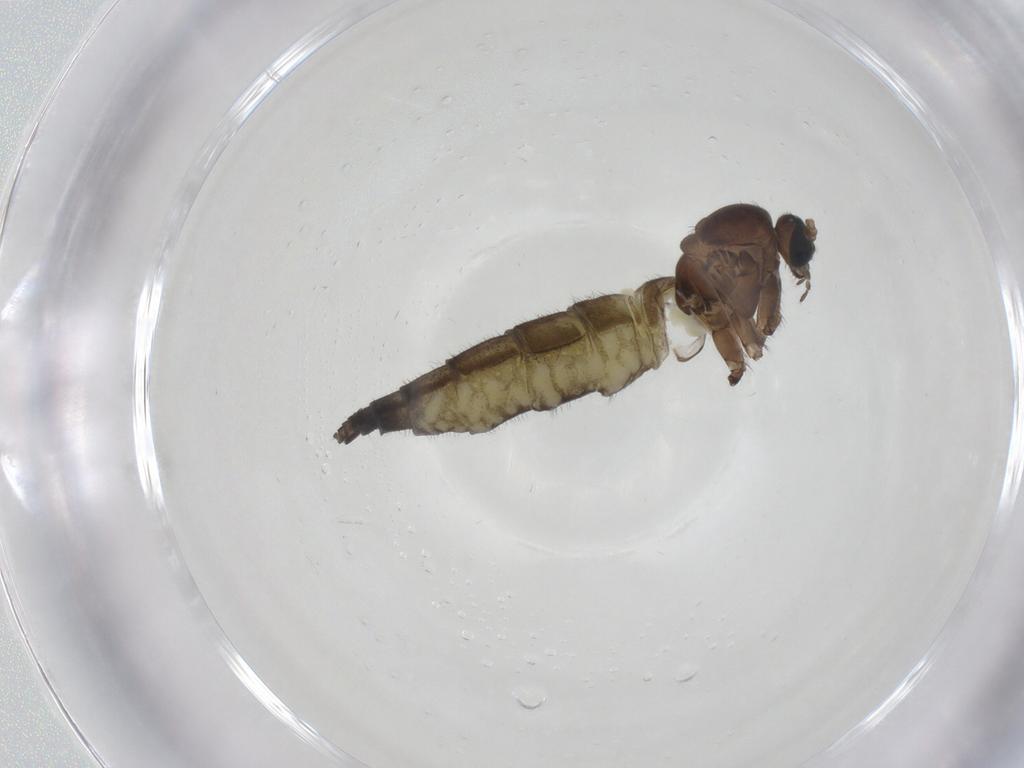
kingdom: Animalia
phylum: Arthropoda
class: Insecta
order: Diptera
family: Sciaridae
